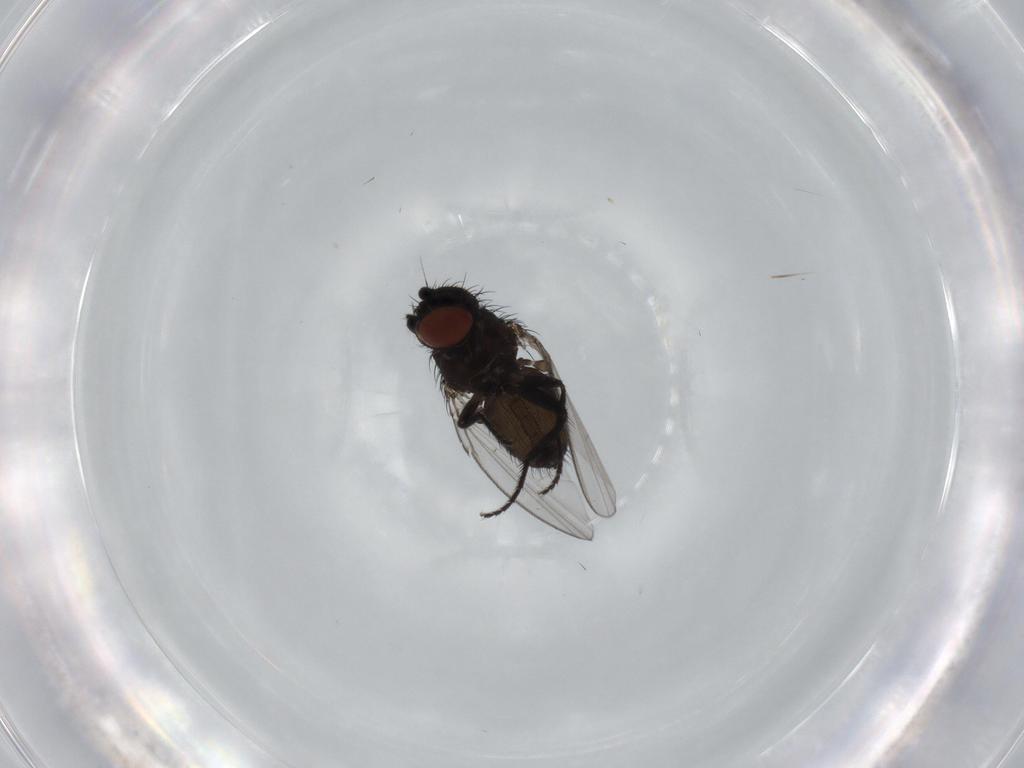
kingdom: Animalia
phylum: Arthropoda
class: Insecta
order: Diptera
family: Milichiidae
